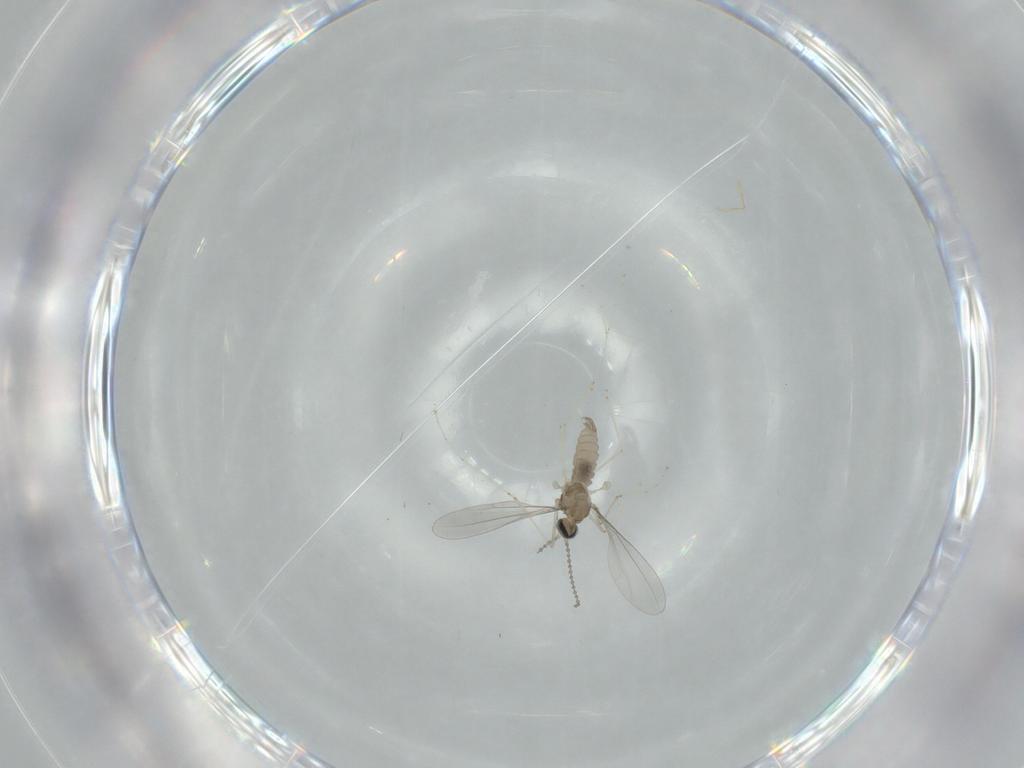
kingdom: Animalia
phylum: Arthropoda
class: Insecta
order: Diptera
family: Cecidomyiidae
